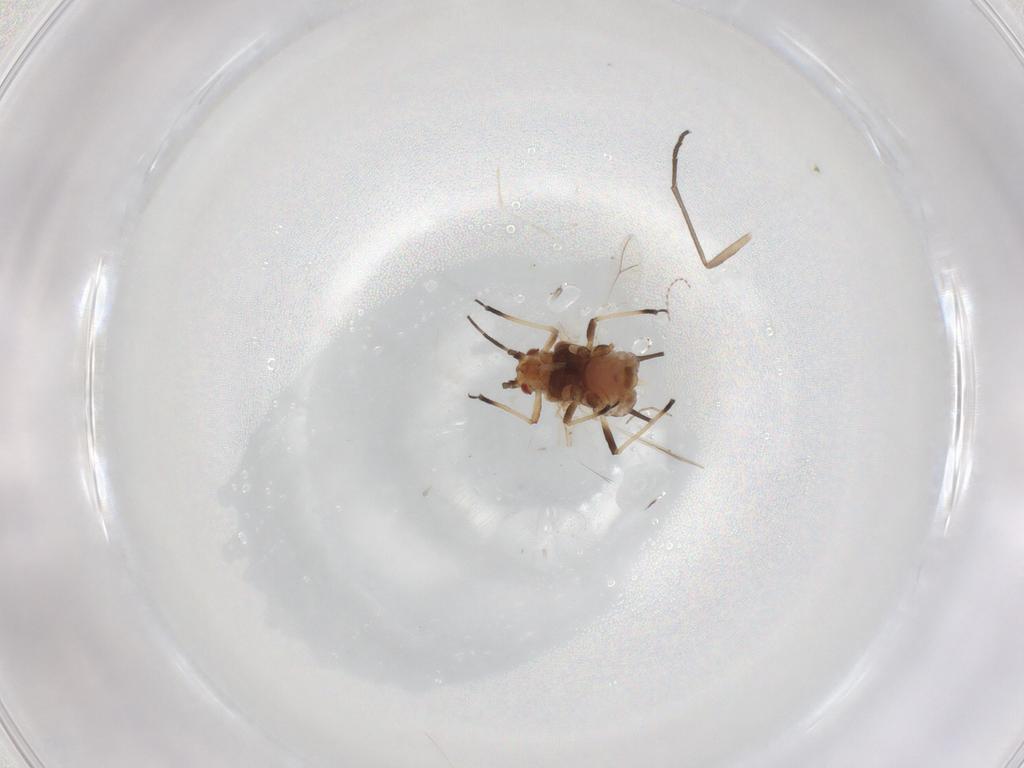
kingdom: Animalia
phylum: Arthropoda
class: Insecta
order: Hemiptera
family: Aphididae
